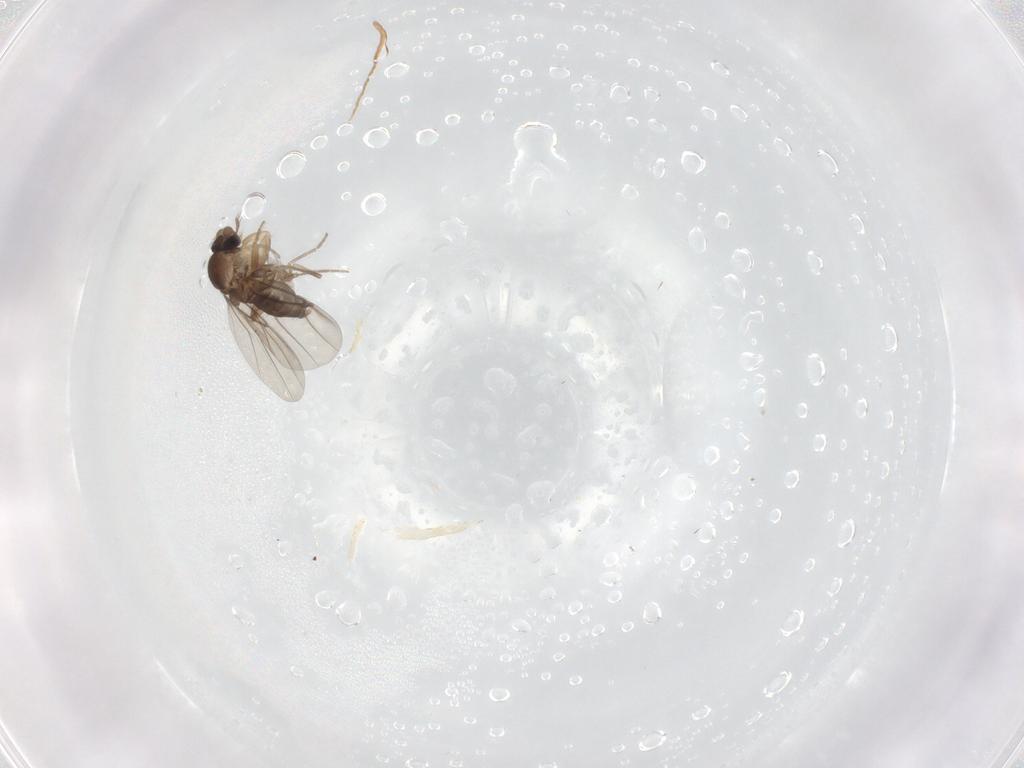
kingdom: Animalia
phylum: Arthropoda
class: Insecta
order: Diptera
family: Phoridae
